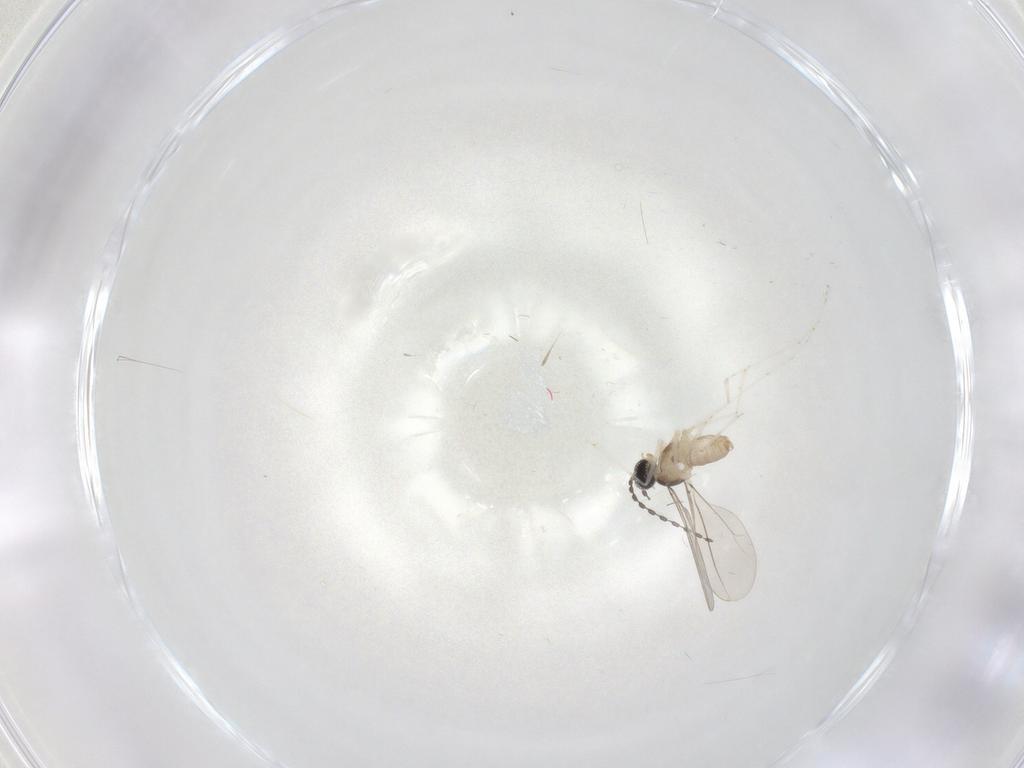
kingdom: Animalia
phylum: Arthropoda
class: Insecta
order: Diptera
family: Cecidomyiidae
